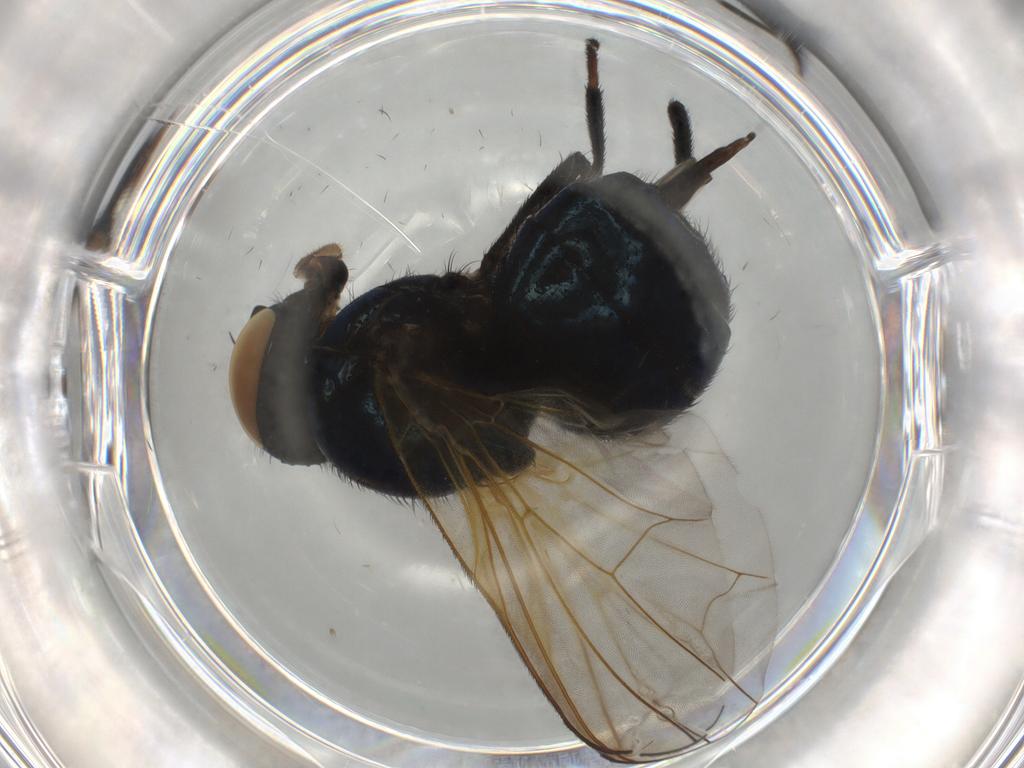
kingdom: Animalia
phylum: Arthropoda
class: Insecta
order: Diptera
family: Lonchaeidae
